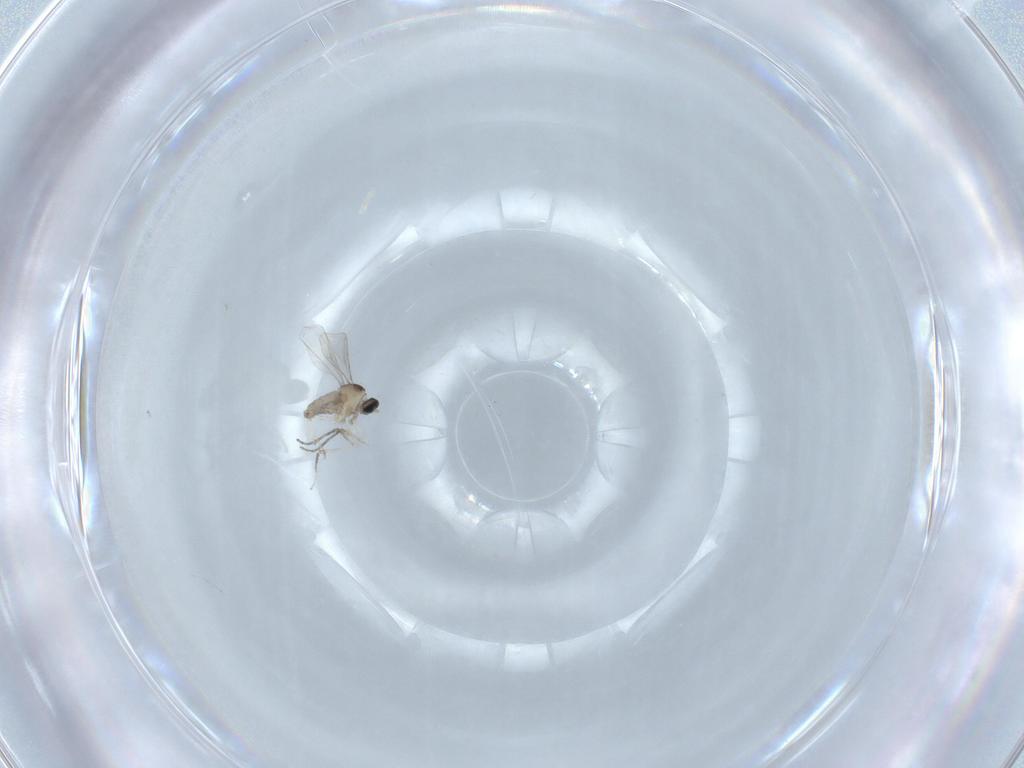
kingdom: Animalia
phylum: Arthropoda
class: Insecta
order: Diptera
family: Cecidomyiidae
